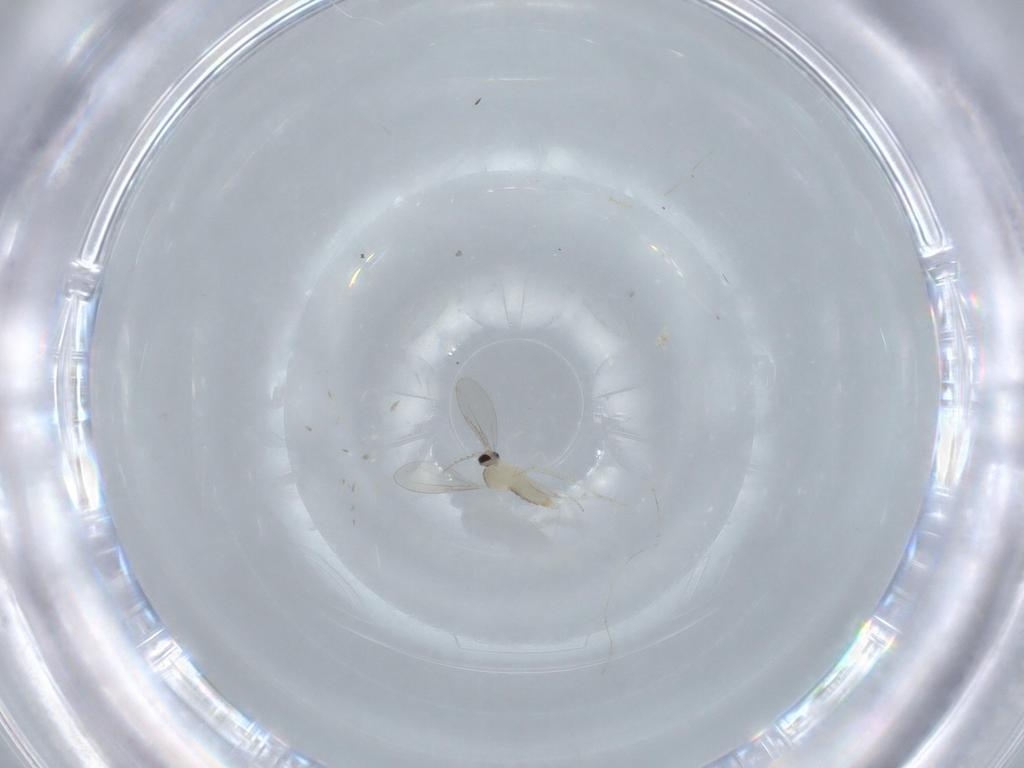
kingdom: Animalia
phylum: Arthropoda
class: Insecta
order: Diptera
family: Cecidomyiidae
